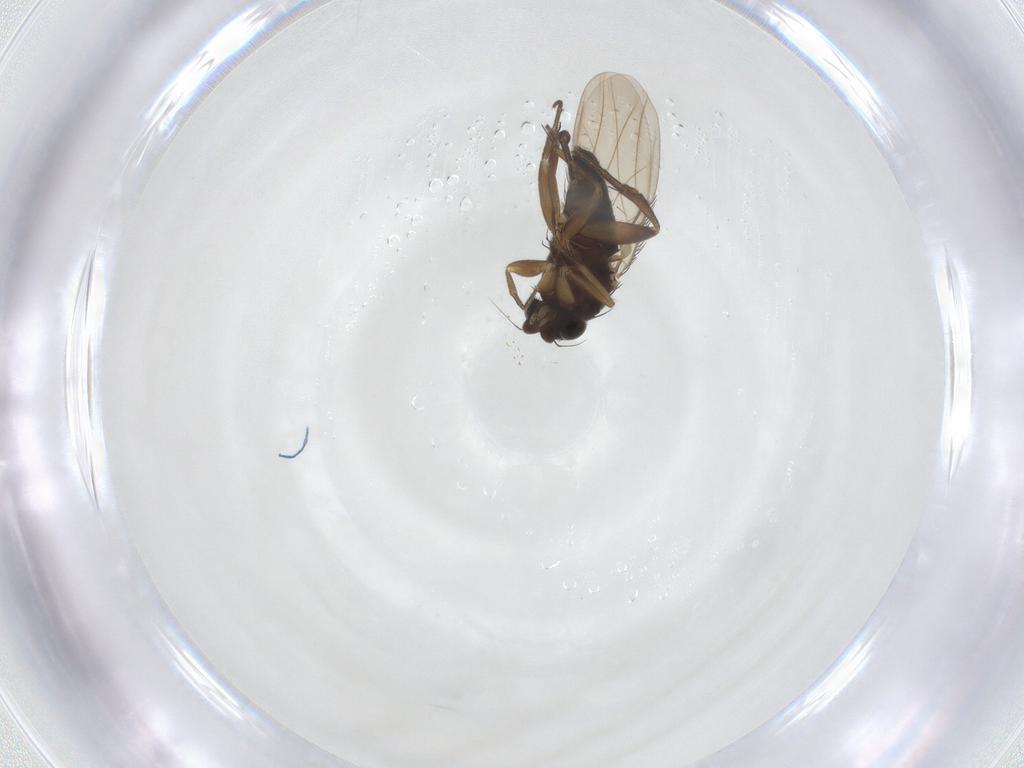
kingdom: Animalia
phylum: Arthropoda
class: Insecta
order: Diptera
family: Phoridae
